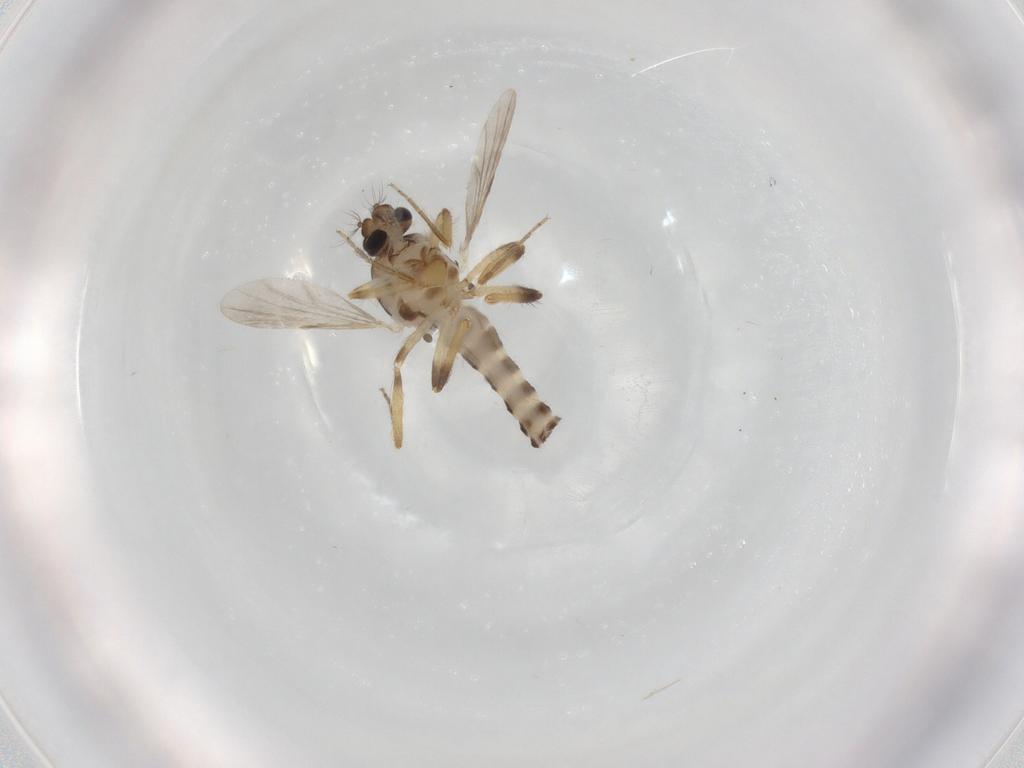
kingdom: Animalia
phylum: Arthropoda
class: Insecta
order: Diptera
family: Ceratopogonidae
